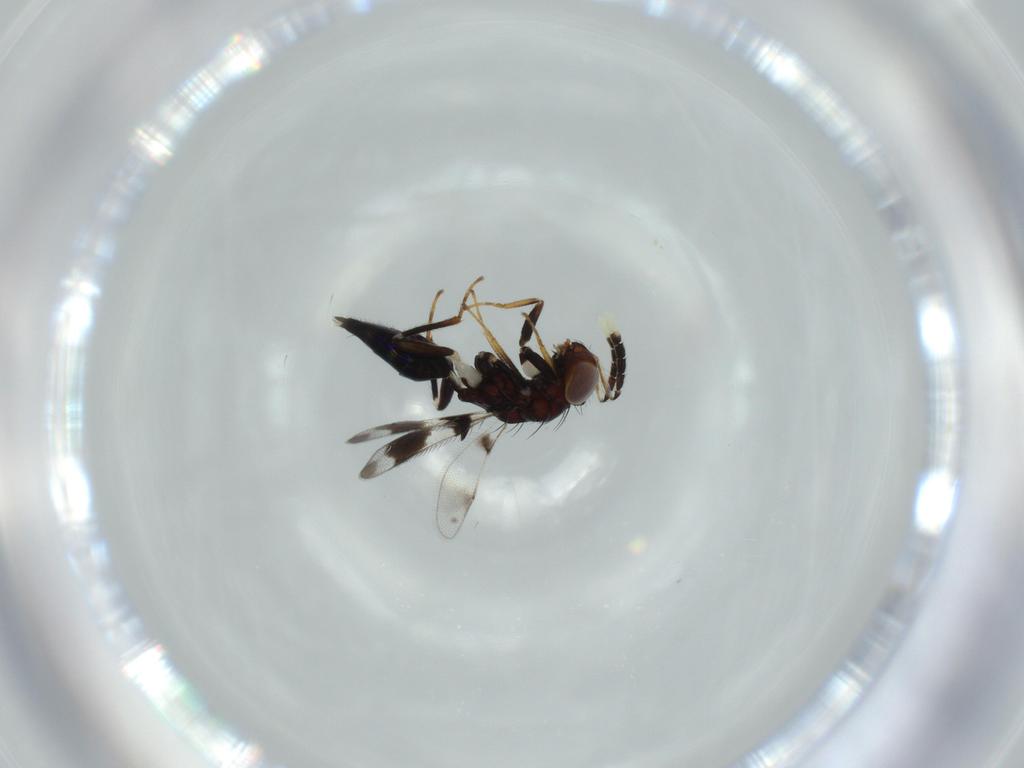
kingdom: Animalia
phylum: Arthropoda
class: Insecta
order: Hymenoptera
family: Eulophidae
